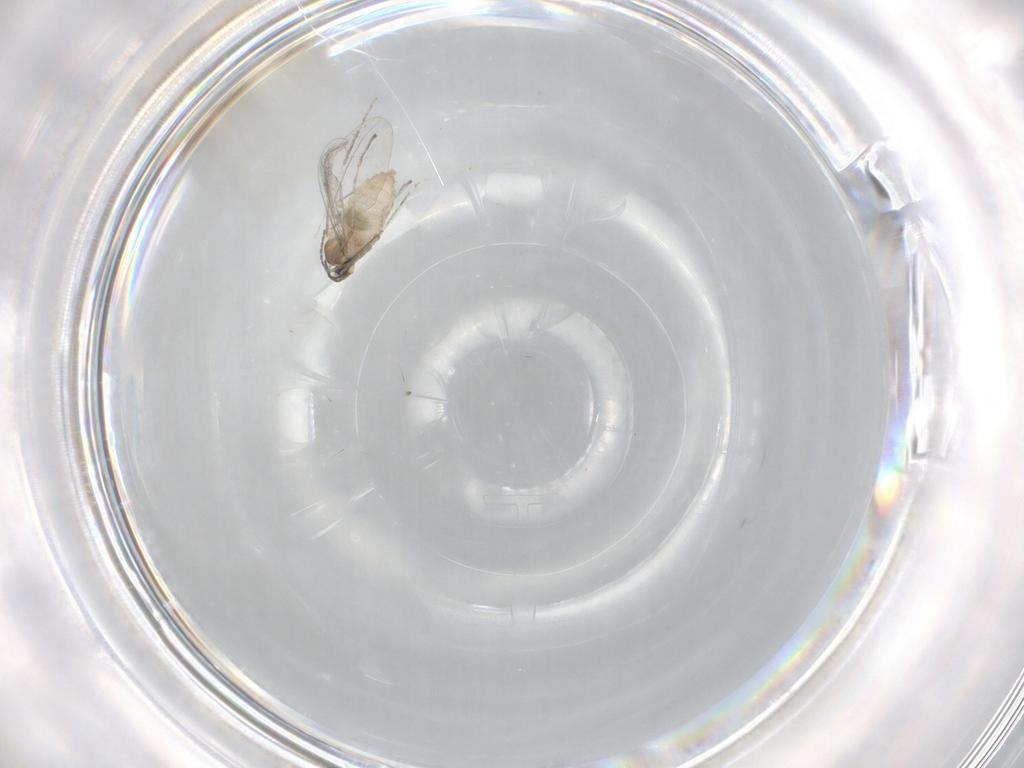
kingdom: Animalia
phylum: Arthropoda
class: Insecta
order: Diptera
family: Cecidomyiidae
